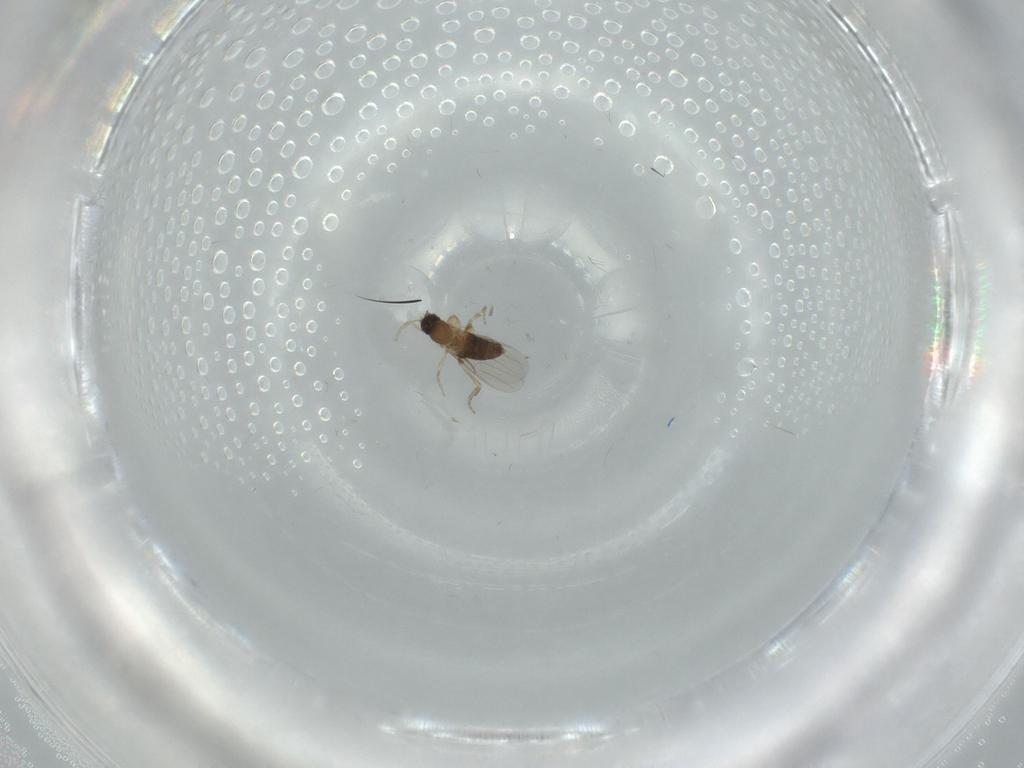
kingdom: Animalia
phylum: Arthropoda
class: Insecta
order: Diptera
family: Phoridae
